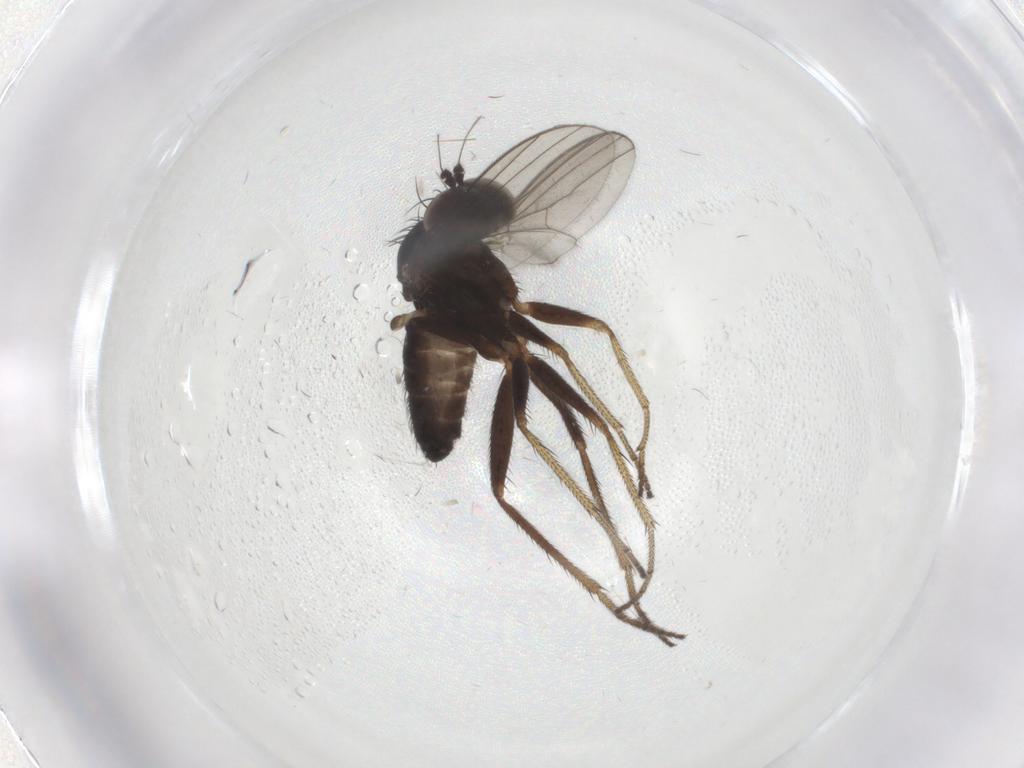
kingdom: Animalia
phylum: Arthropoda
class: Insecta
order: Diptera
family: Dolichopodidae
